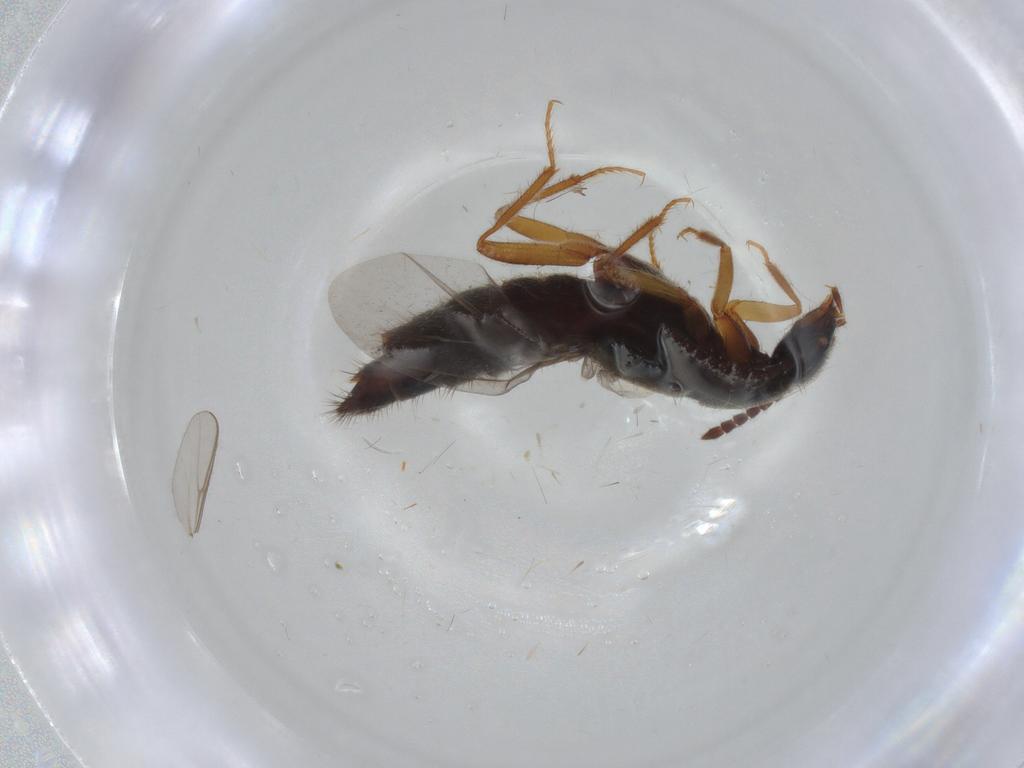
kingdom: Animalia
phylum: Arthropoda
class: Insecta
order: Coleoptera
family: Staphylinidae
